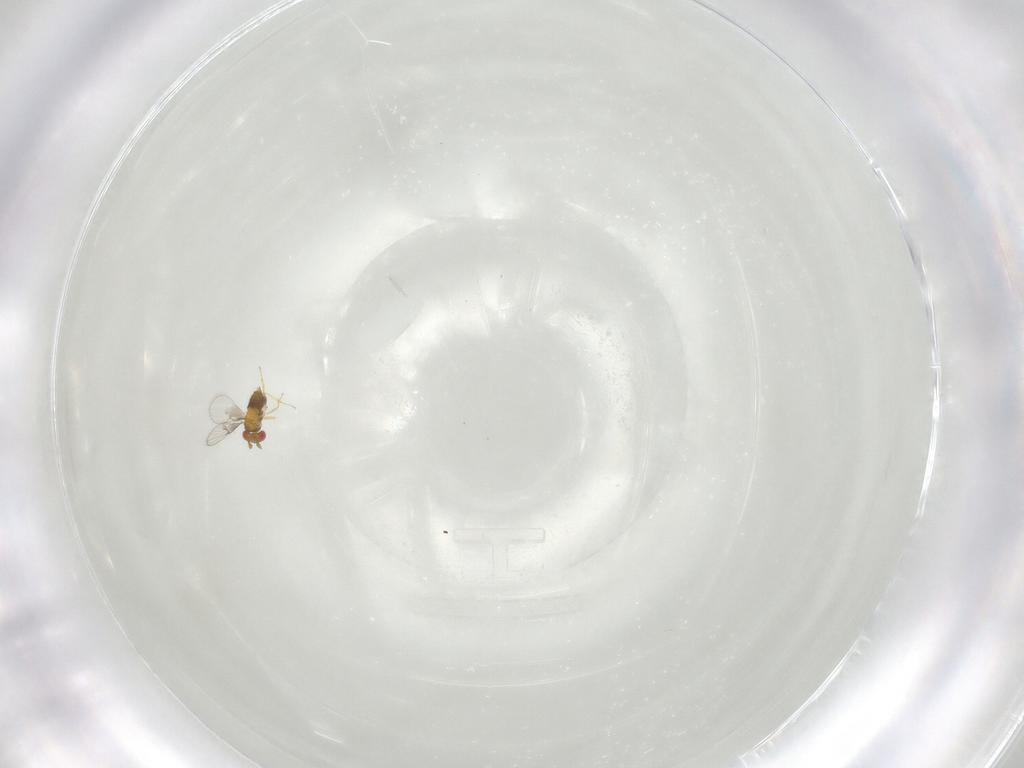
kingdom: Animalia
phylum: Arthropoda
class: Insecta
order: Hymenoptera
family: Trichogrammatidae
